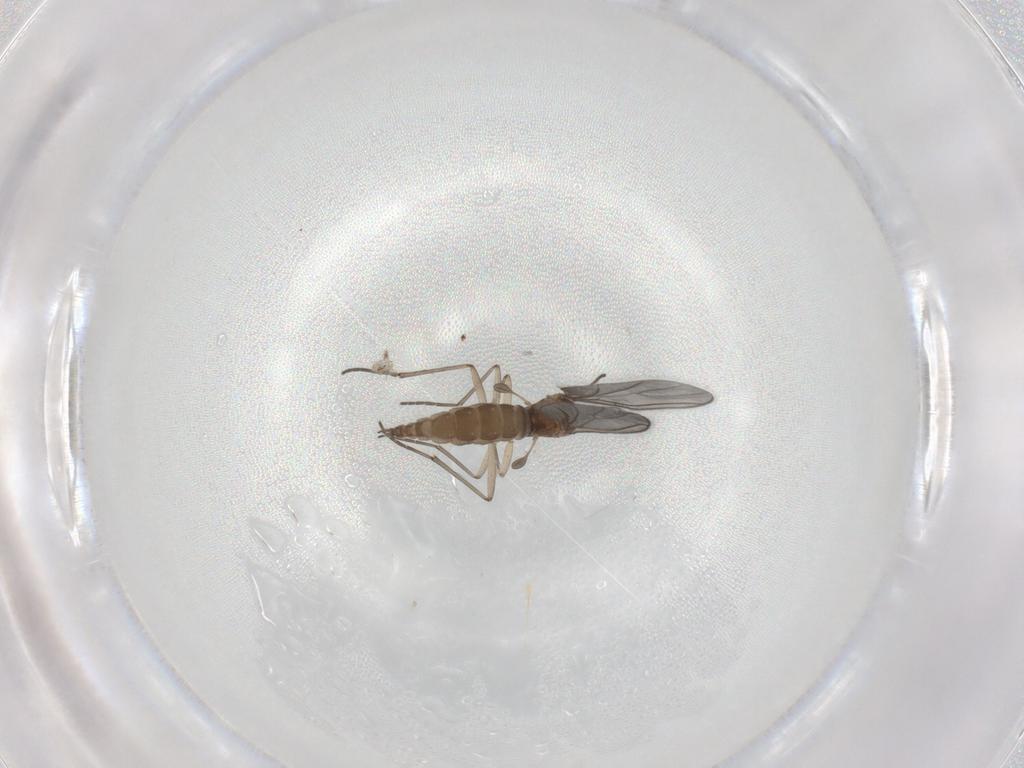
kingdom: Animalia
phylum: Arthropoda
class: Insecta
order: Diptera
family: Sciaridae
